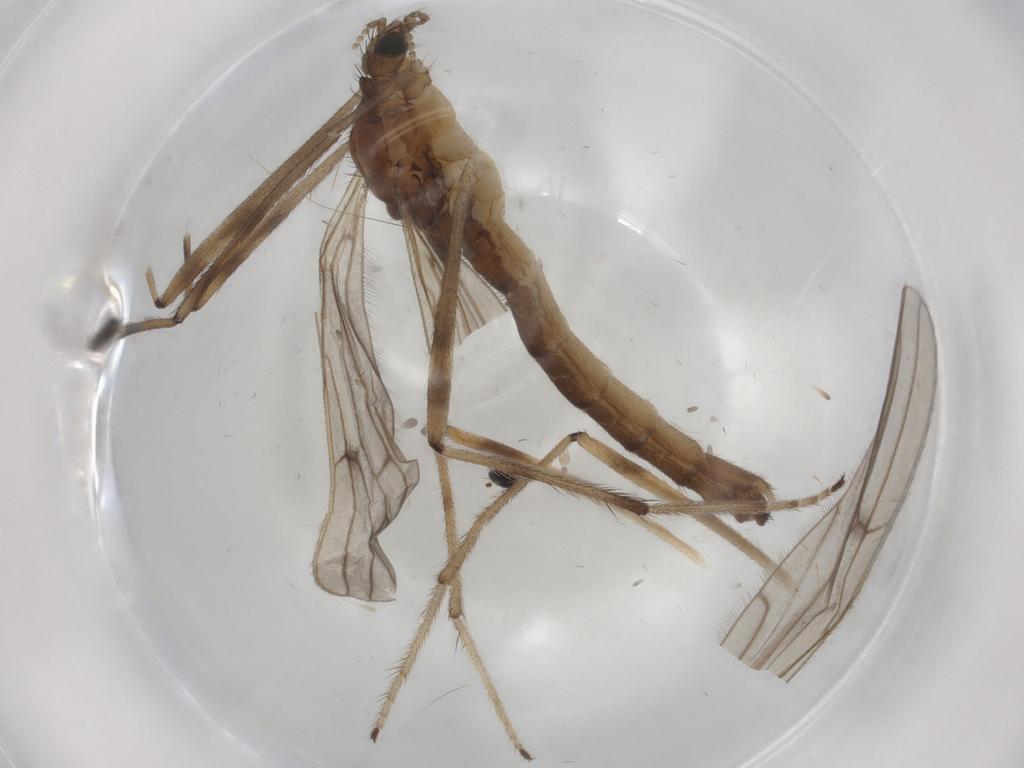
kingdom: Animalia
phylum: Arthropoda
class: Insecta
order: Diptera
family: Limoniidae
